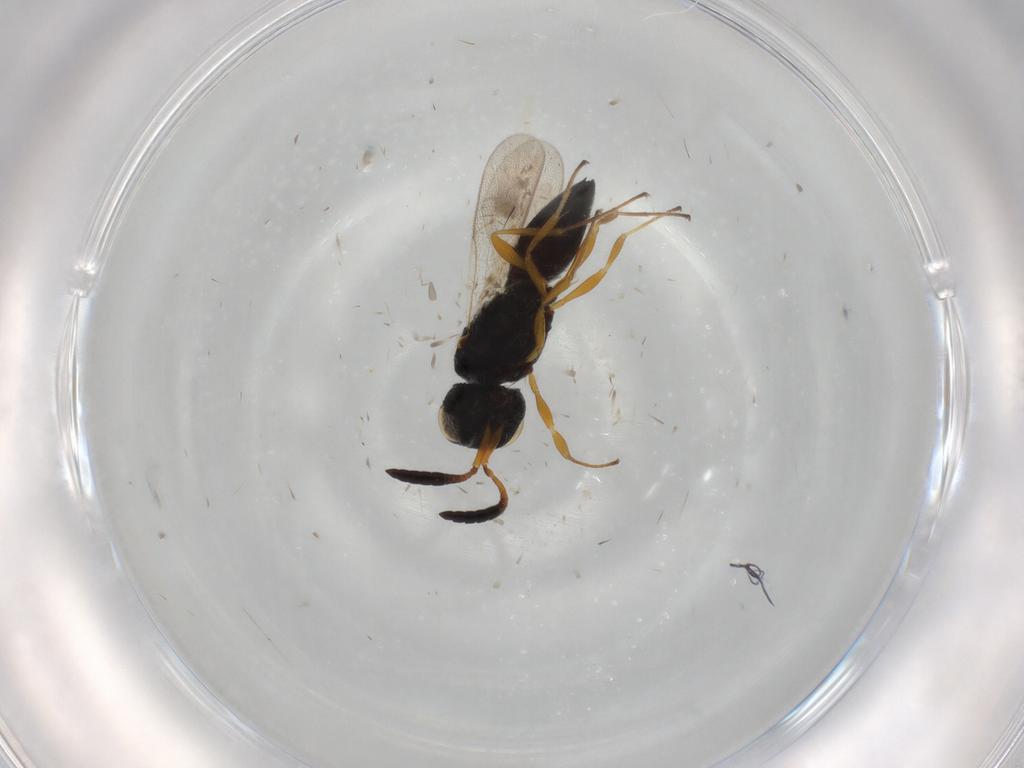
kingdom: Animalia
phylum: Arthropoda
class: Insecta
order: Hymenoptera
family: Scelionidae
